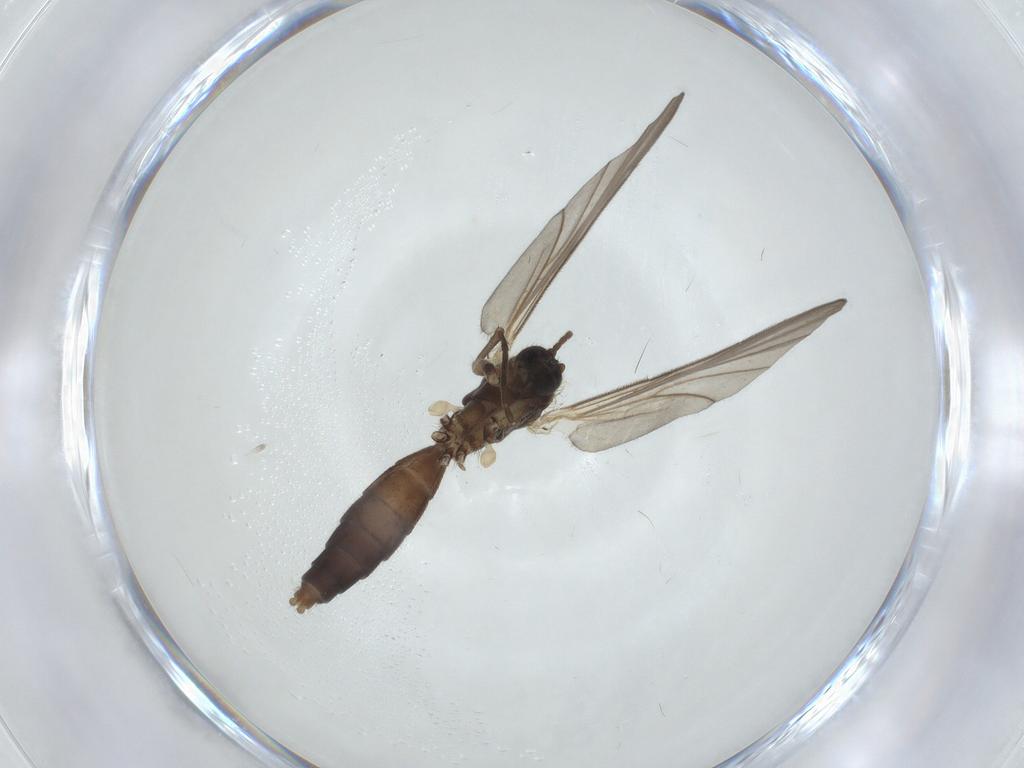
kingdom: Animalia
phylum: Arthropoda
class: Insecta
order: Diptera
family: Mycetophilidae
